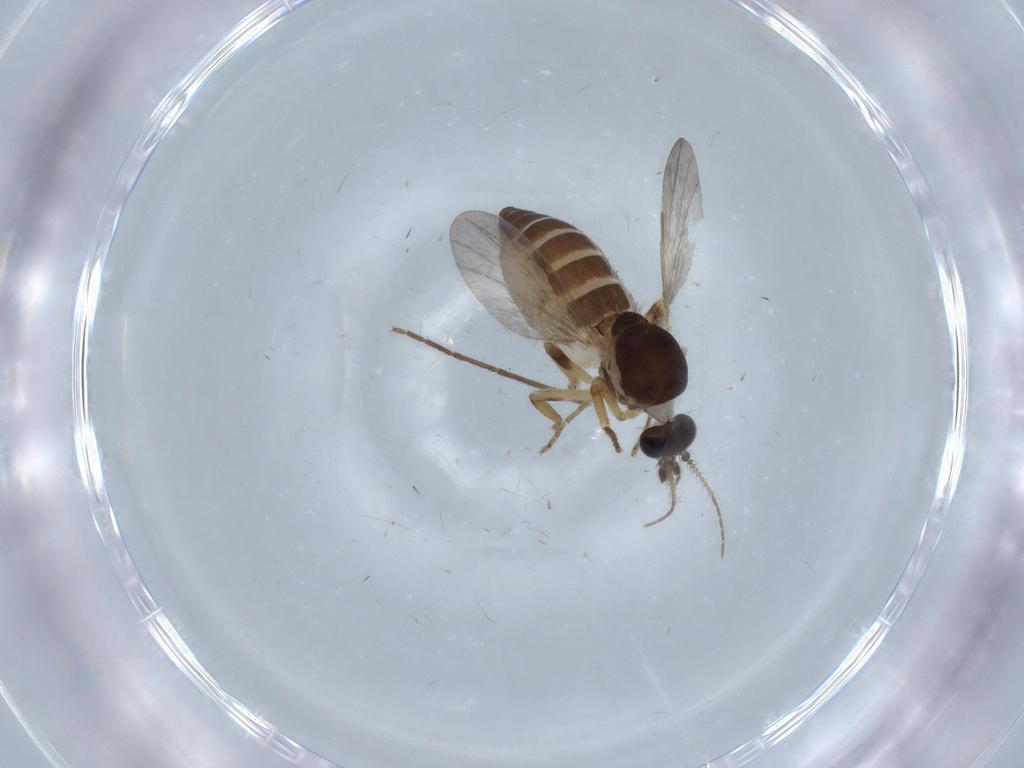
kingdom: Animalia
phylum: Arthropoda
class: Insecta
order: Diptera
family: Ceratopogonidae
